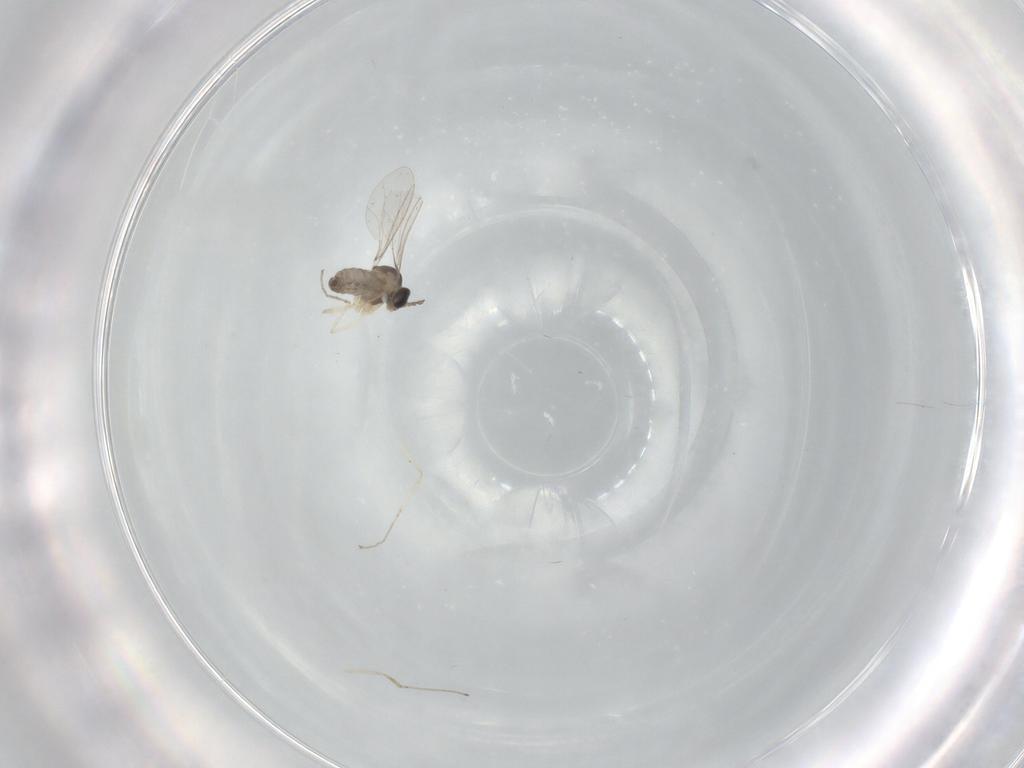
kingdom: Animalia
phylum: Arthropoda
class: Insecta
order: Diptera
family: Cecidomyiidae
